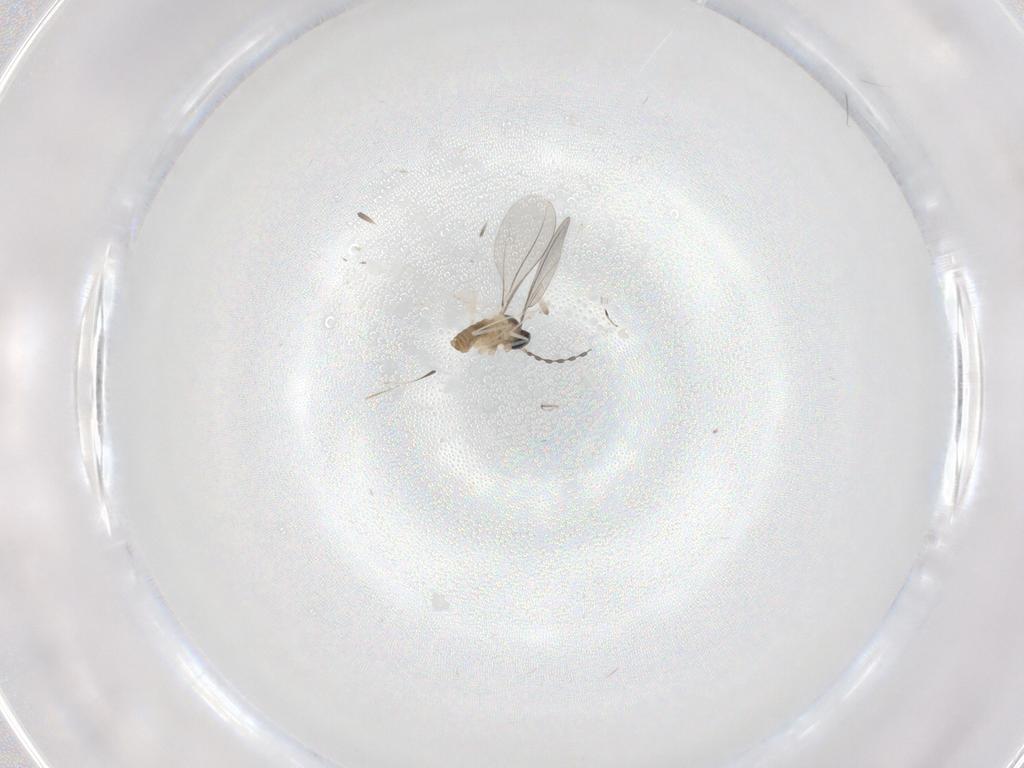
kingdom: Animalia
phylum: Arthropoda
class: Insecta
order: Diptera
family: Cecidomyiidae
